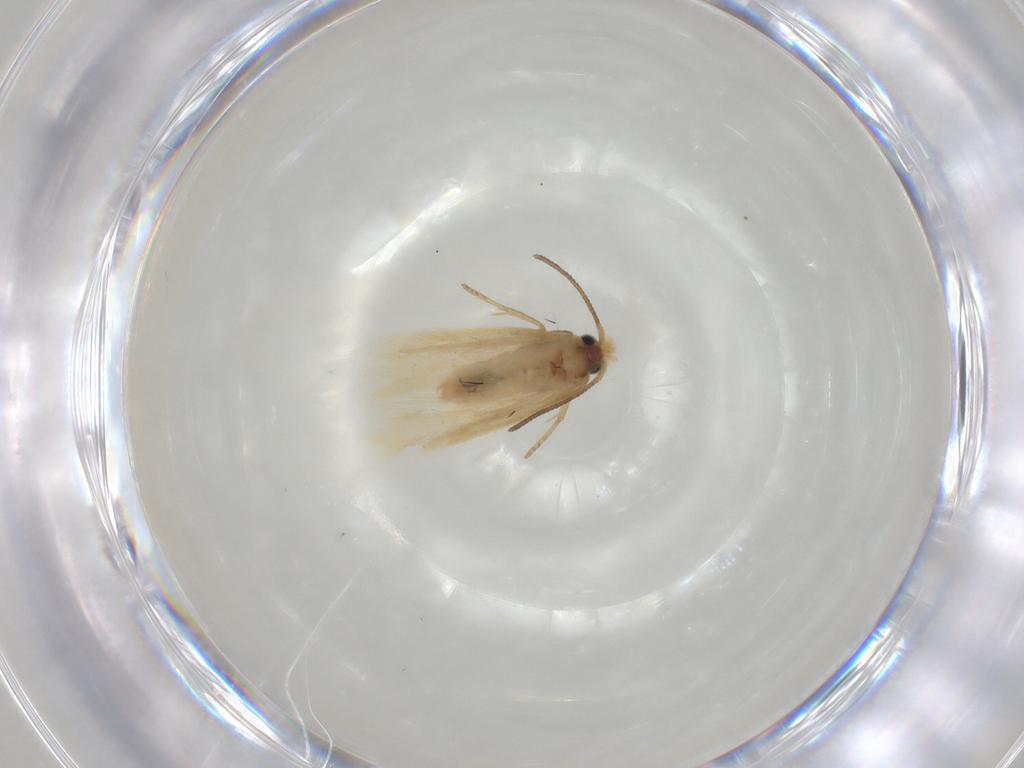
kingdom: Animalia
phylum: Arthropoda
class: Insecta
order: Lepidoptera
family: Nepticulidae
